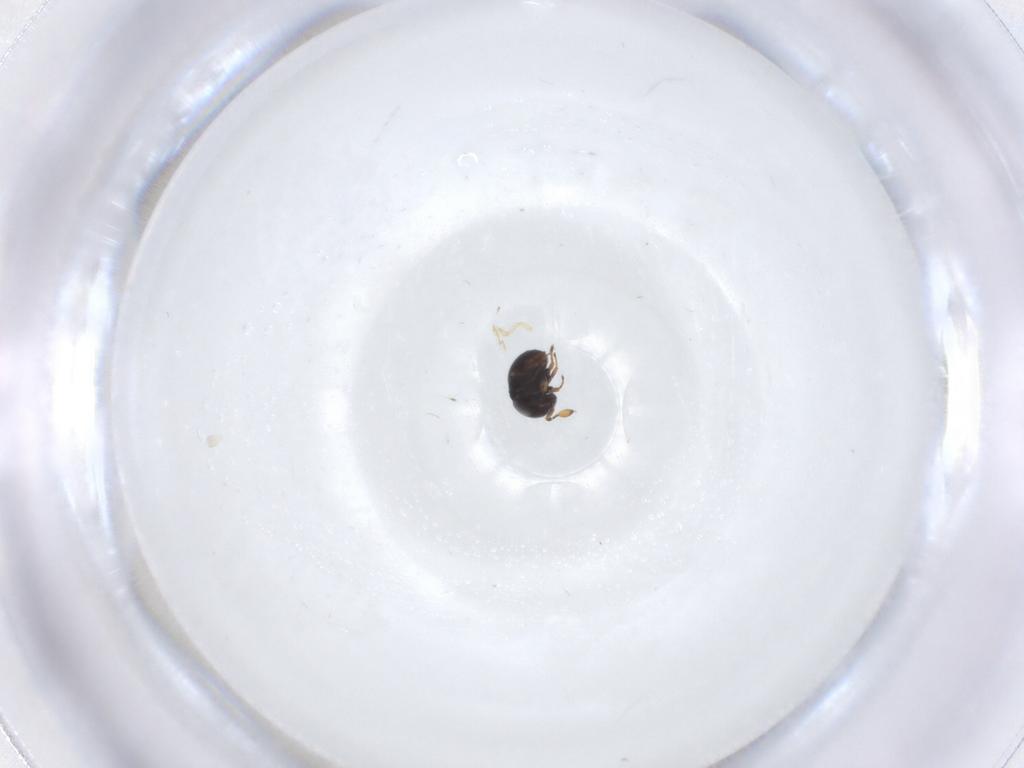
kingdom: Animalia
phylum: Arthropoda
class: Insecta
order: Hymenoptera
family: Scelionidae
